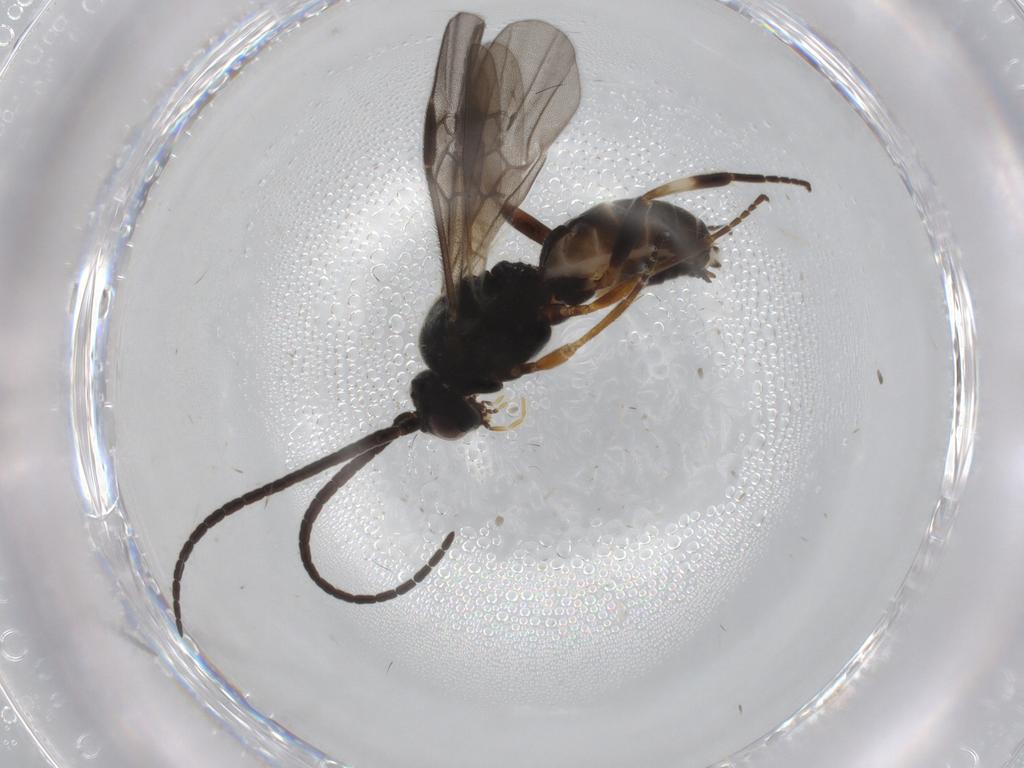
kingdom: Animalia
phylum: Arthropoda
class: Insecta
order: Hymenoptera
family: Braconidae
